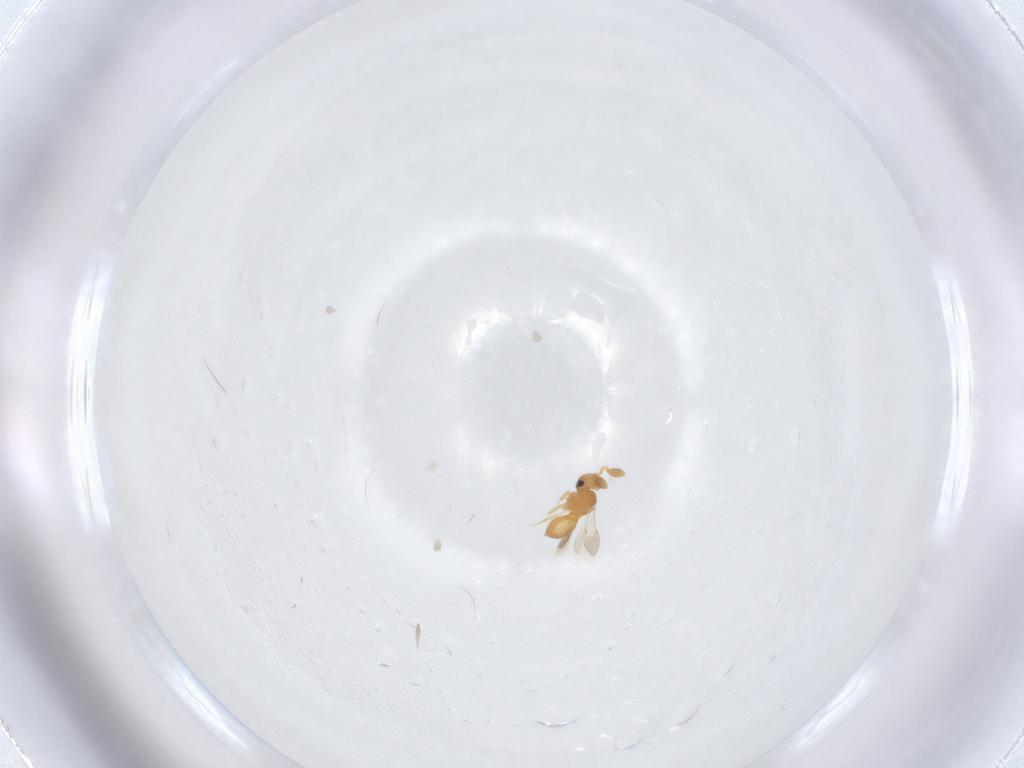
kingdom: Animalia
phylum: Arthropoda
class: Insecta
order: Hymenoptera
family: Scelionidae
